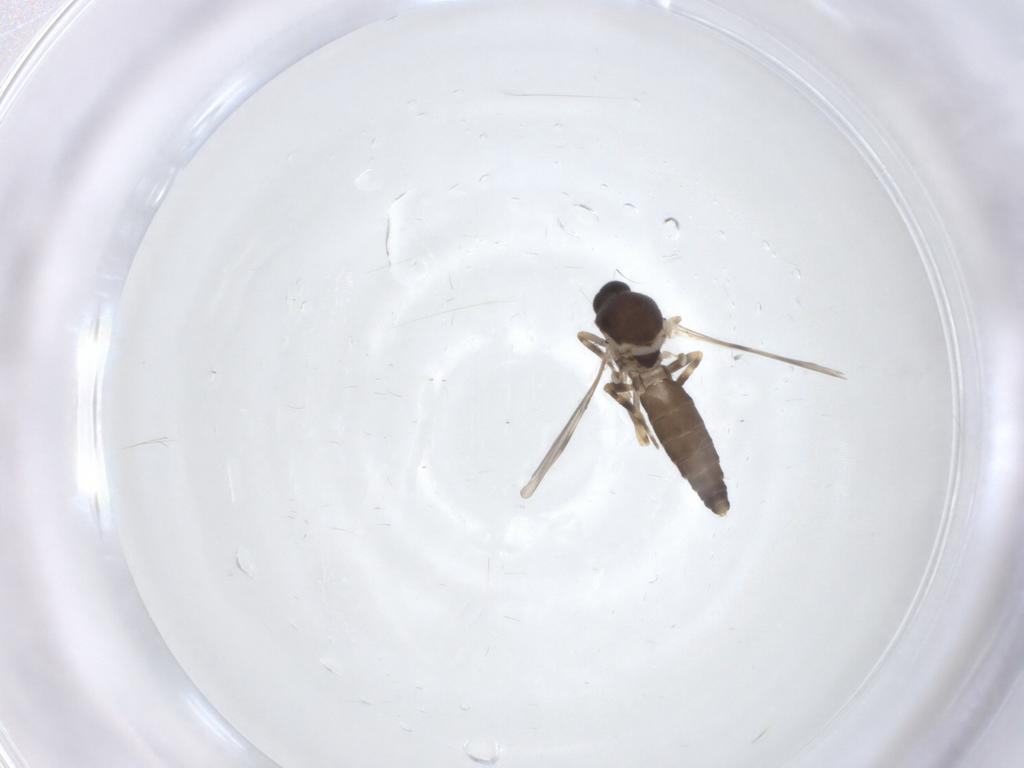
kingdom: Animalia
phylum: Arthropoda
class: Insecta
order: Diptera
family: Ceratopogonidae
